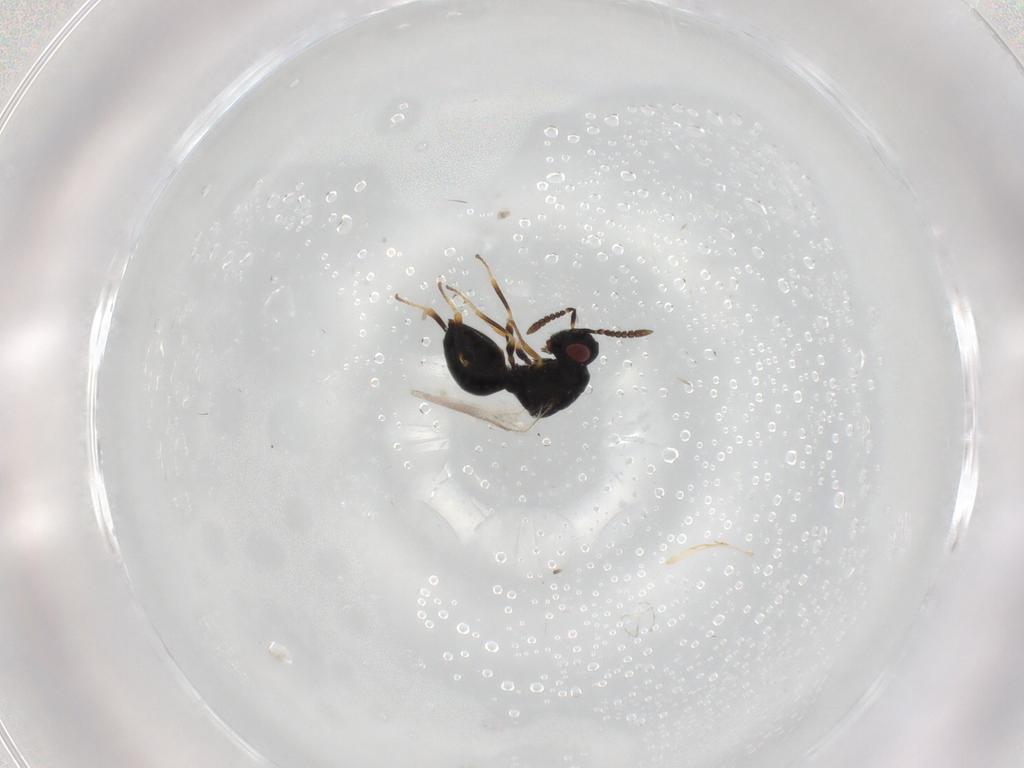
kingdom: Animalia
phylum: Arthropoda
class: Insecta
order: Hymenoptera
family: Eurytomidae
